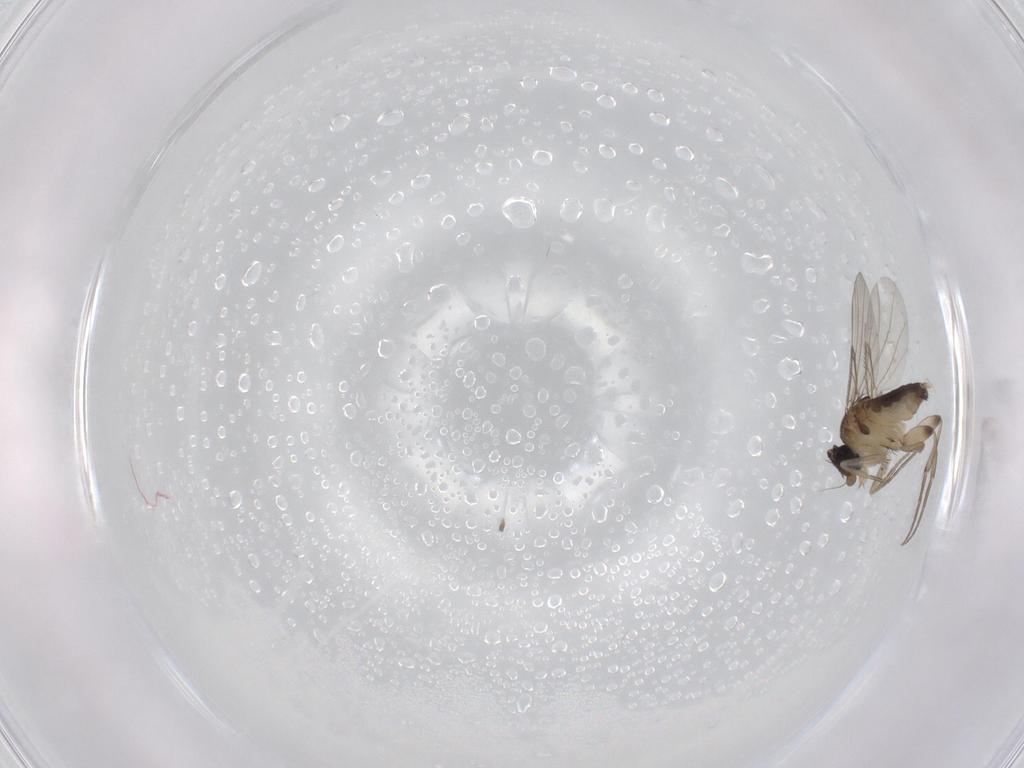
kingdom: Animalia
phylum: Arthropoda
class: Insecta
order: Diptera
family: Phoridae
